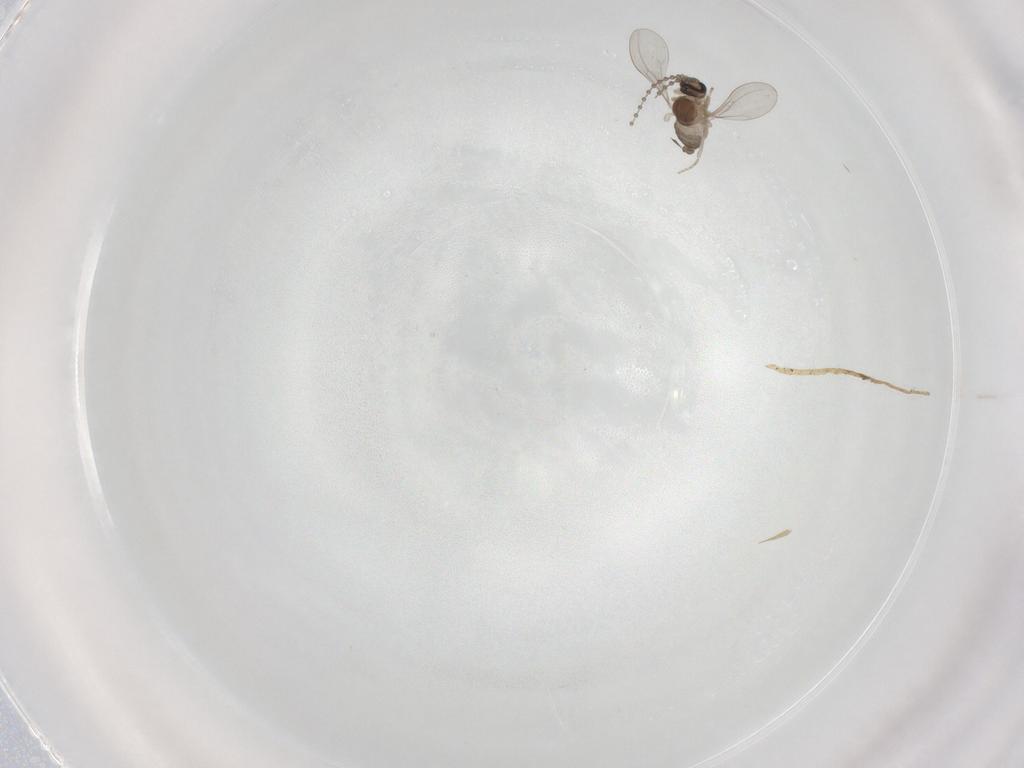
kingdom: Animalia
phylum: Arthropoda
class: Insecta
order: Diptera
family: Cecidomyiidae
